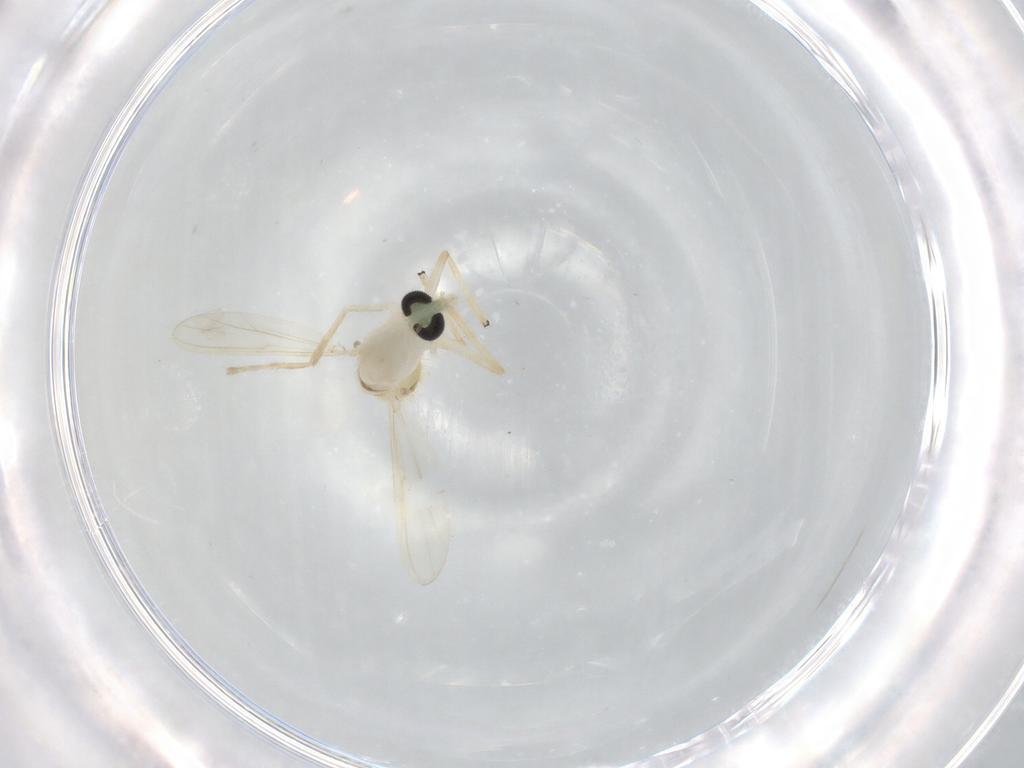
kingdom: Animalia
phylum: Arthropoda
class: Insecta
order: Diptera
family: Chironomidae
